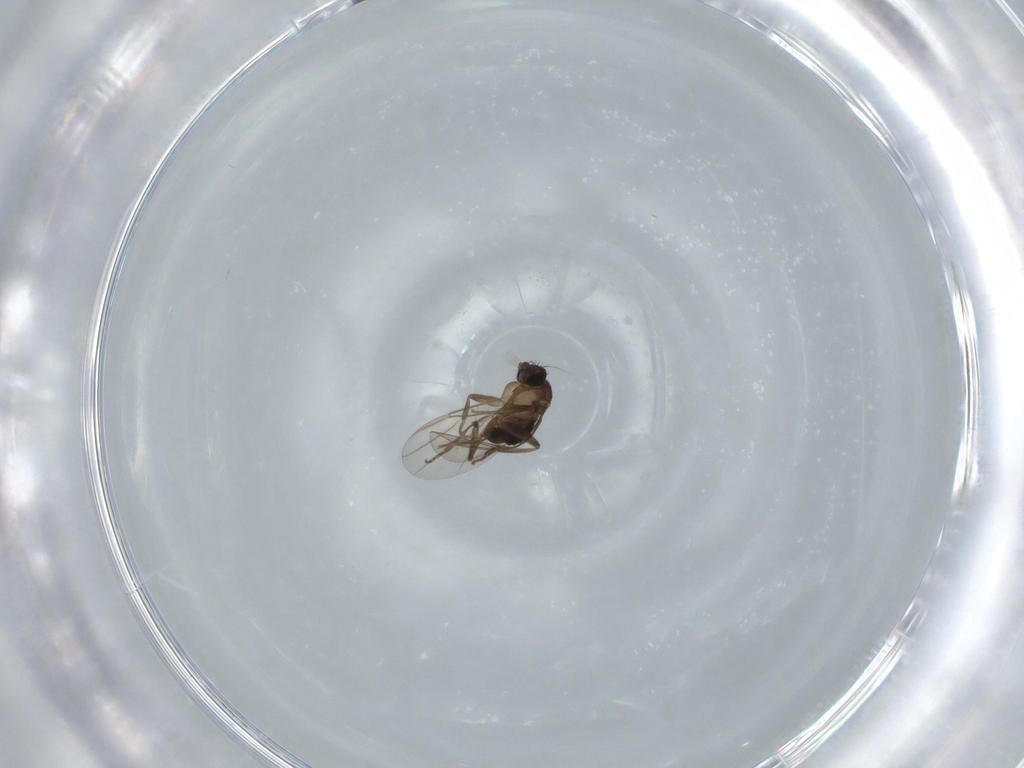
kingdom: Animalia
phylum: Arthropoda
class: Insecta
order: Diptera
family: Phoridae
